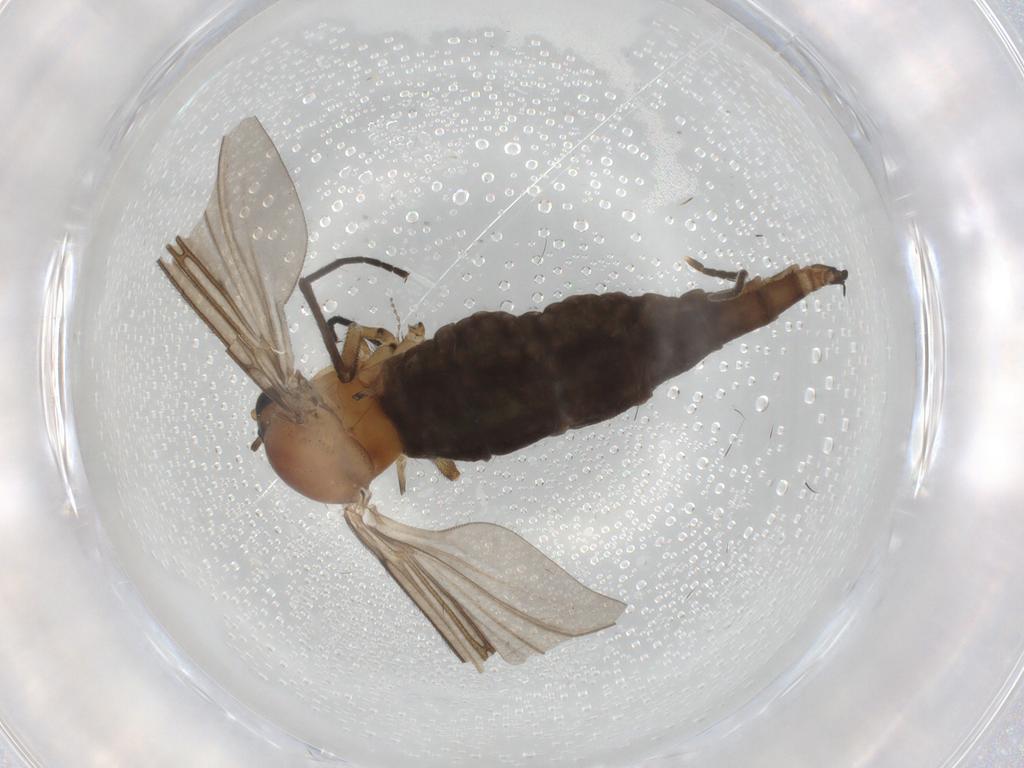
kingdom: Animalia
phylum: Arthropoda
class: Insecta
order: Diptera
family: Sciaridae
